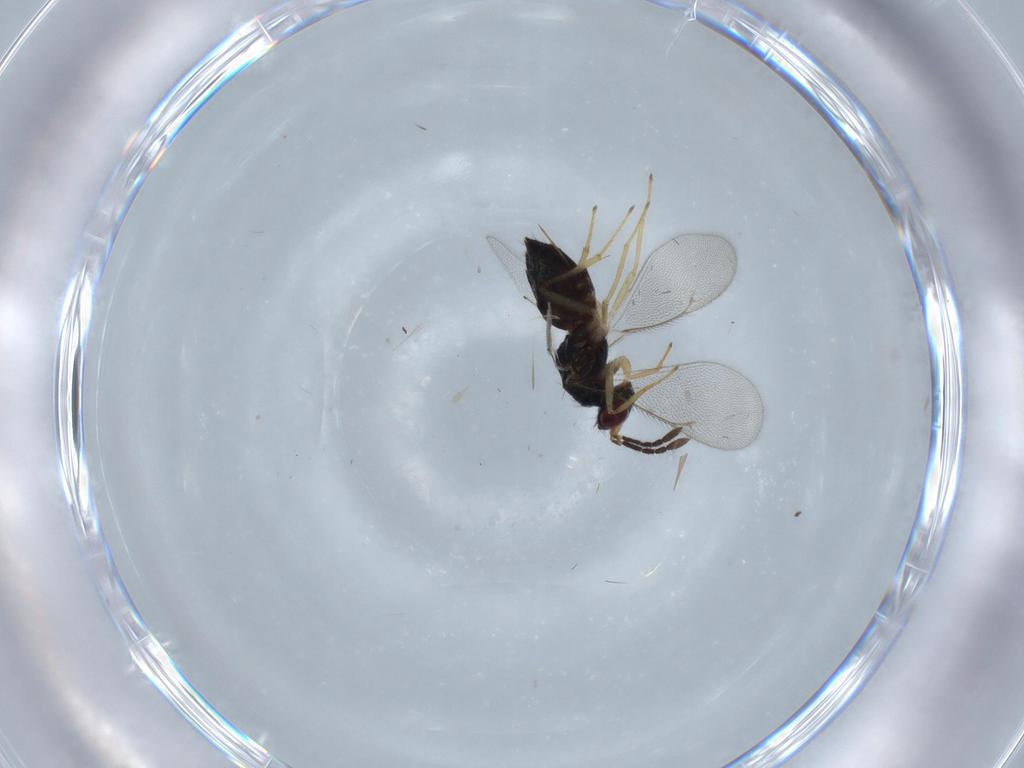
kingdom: Animalia
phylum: Arthropoda
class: Insecta
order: Hymenoptera
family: Eulophidae
